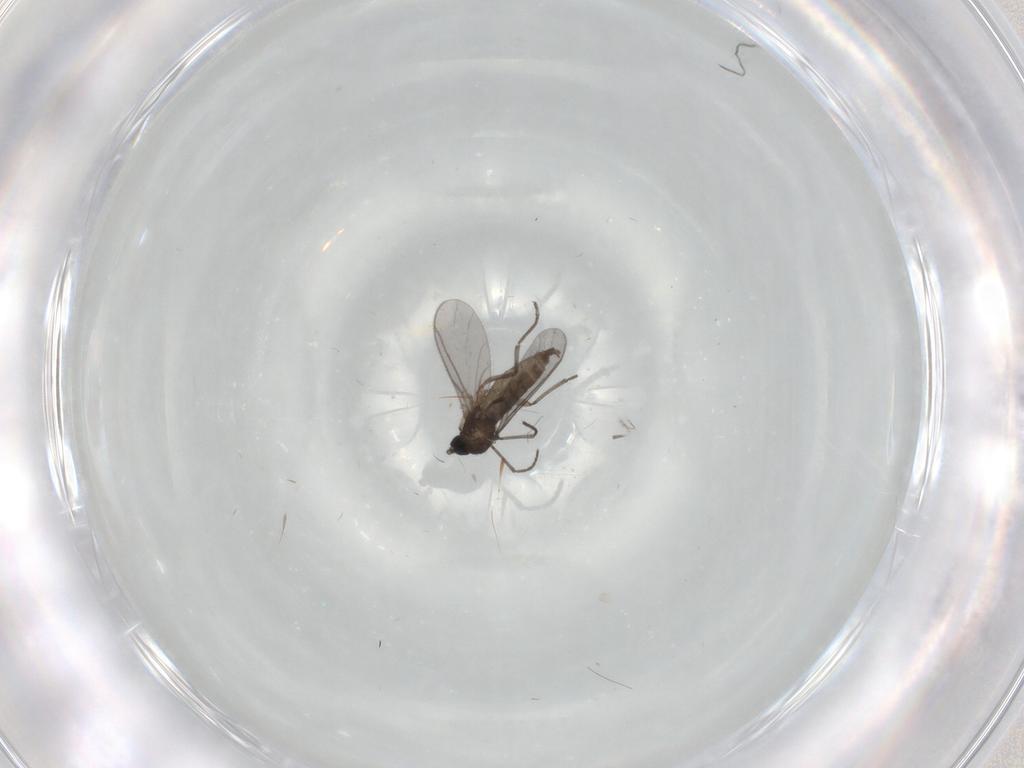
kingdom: Animalia
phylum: Arthropoda
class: Insecta
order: Diptera
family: Sciaridae
